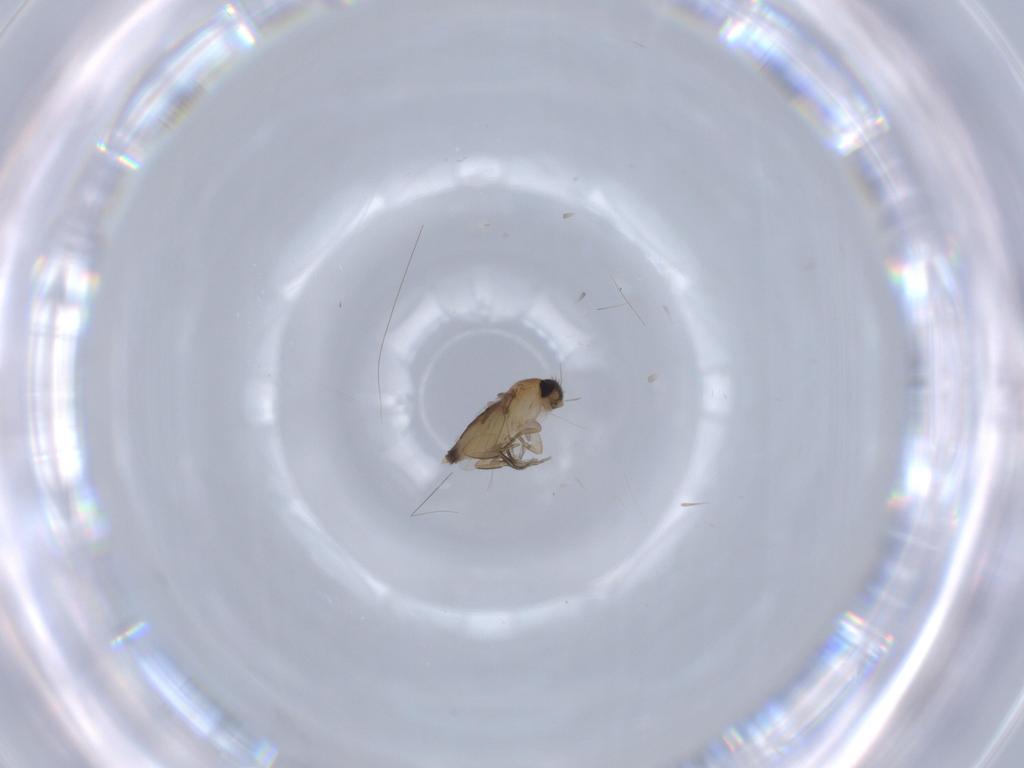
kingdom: Animalia
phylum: Arthropoda
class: Insecta
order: Diptera
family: Phoridae
